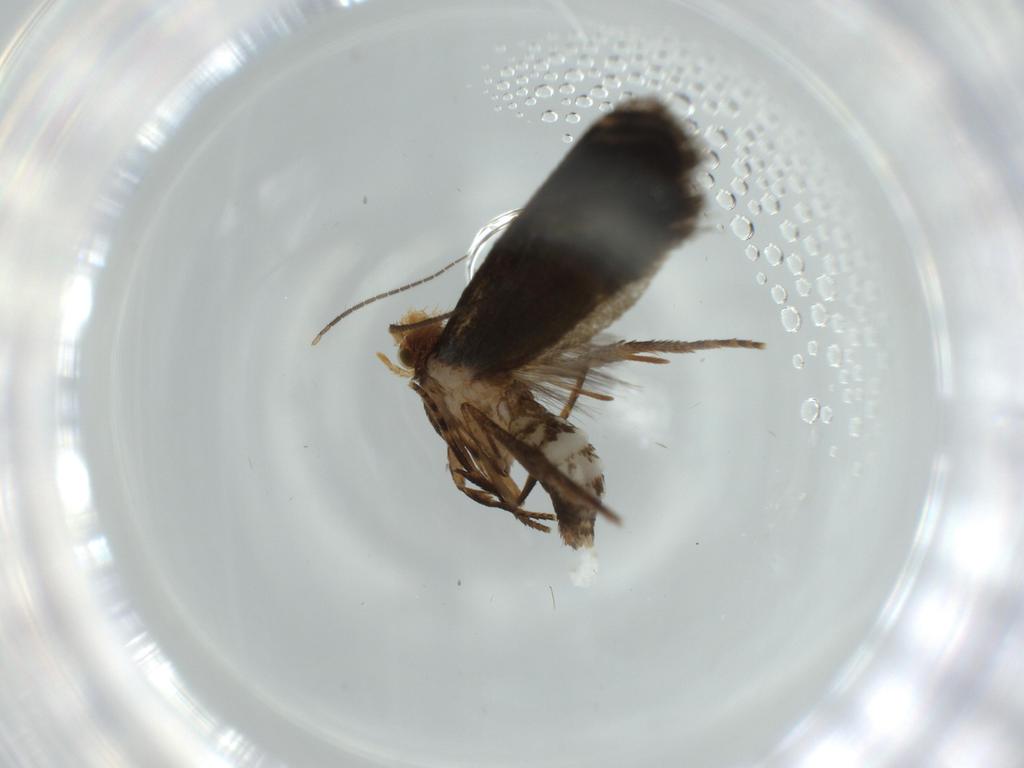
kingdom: Animalia
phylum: Arthropoda
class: Insecta
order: Lepidoptera
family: Tineidae
